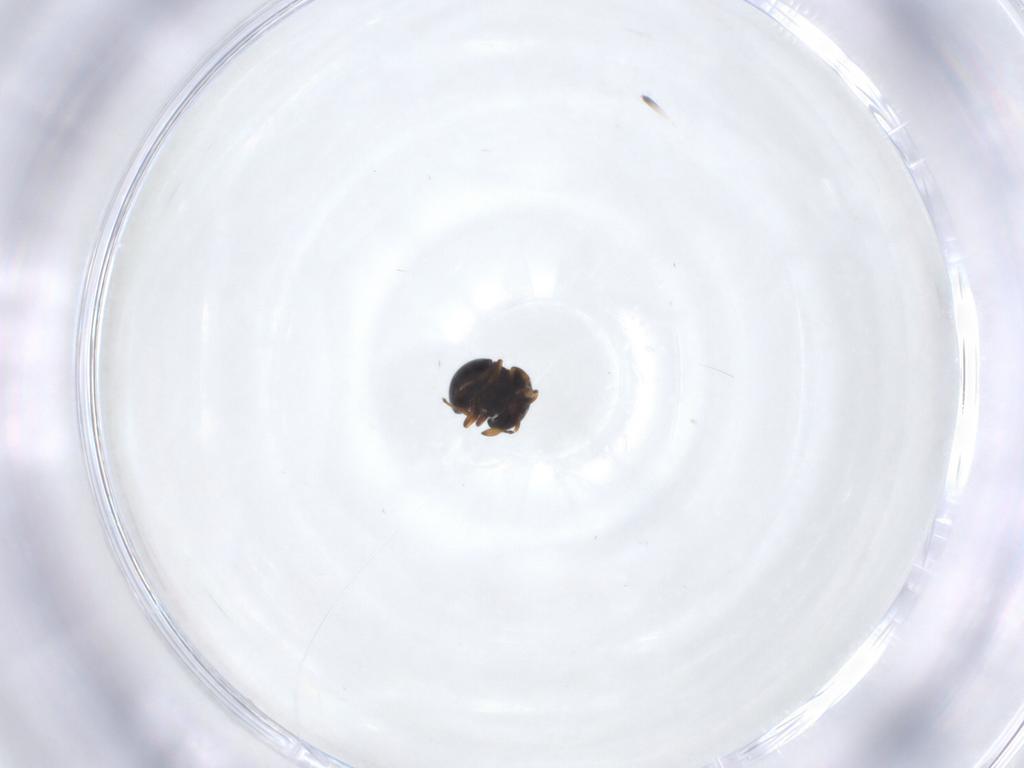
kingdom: Animalia
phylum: Arthropoda
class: Insecta
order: Hymenoptera
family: Scelionidae
